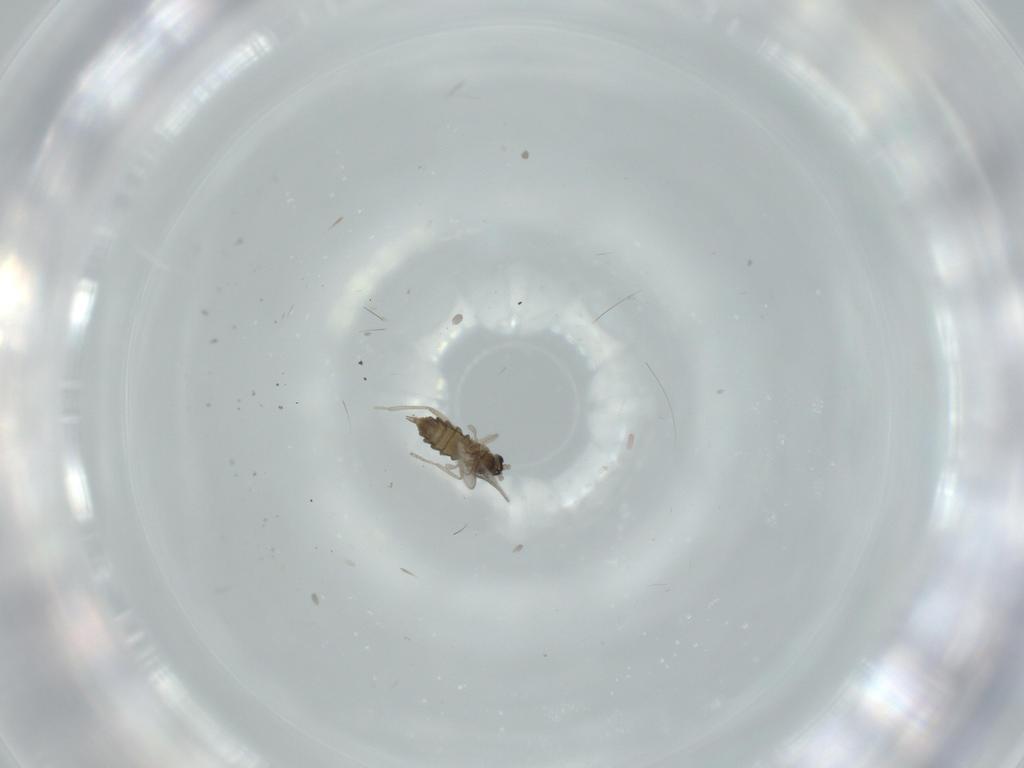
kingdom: Animalia
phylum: Arthropoda
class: Insecta
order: Diptera
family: Cecidomyiidae
